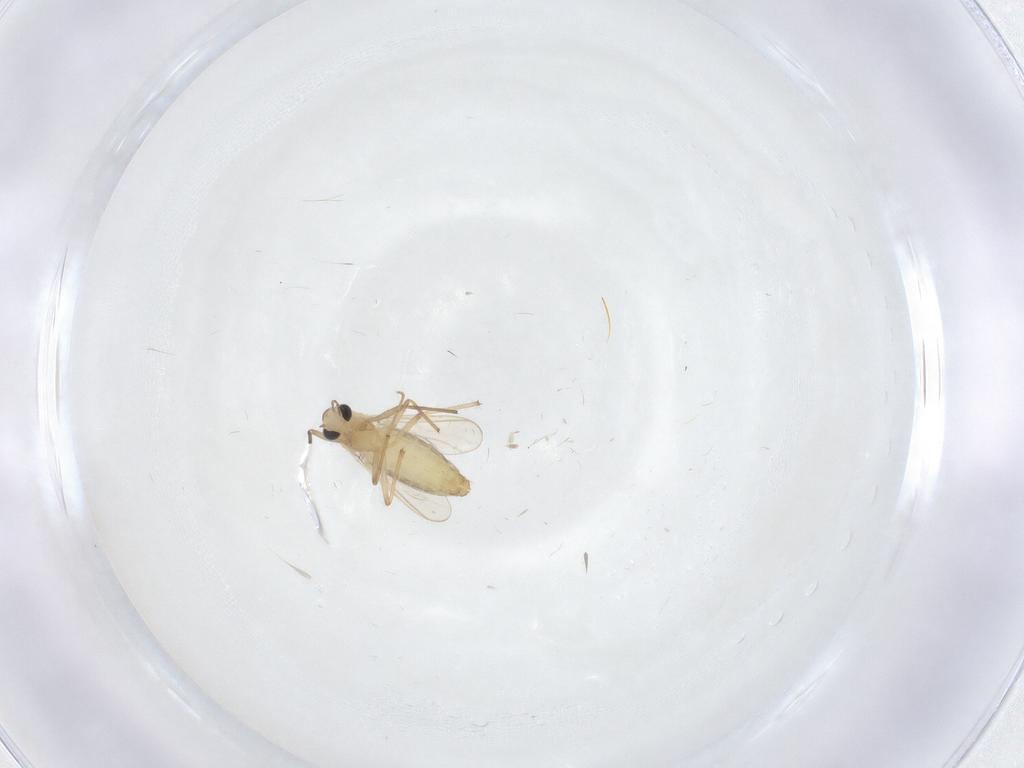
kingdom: Animalia
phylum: Arthropoda
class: Insecta
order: Diptera
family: Chironomidae
